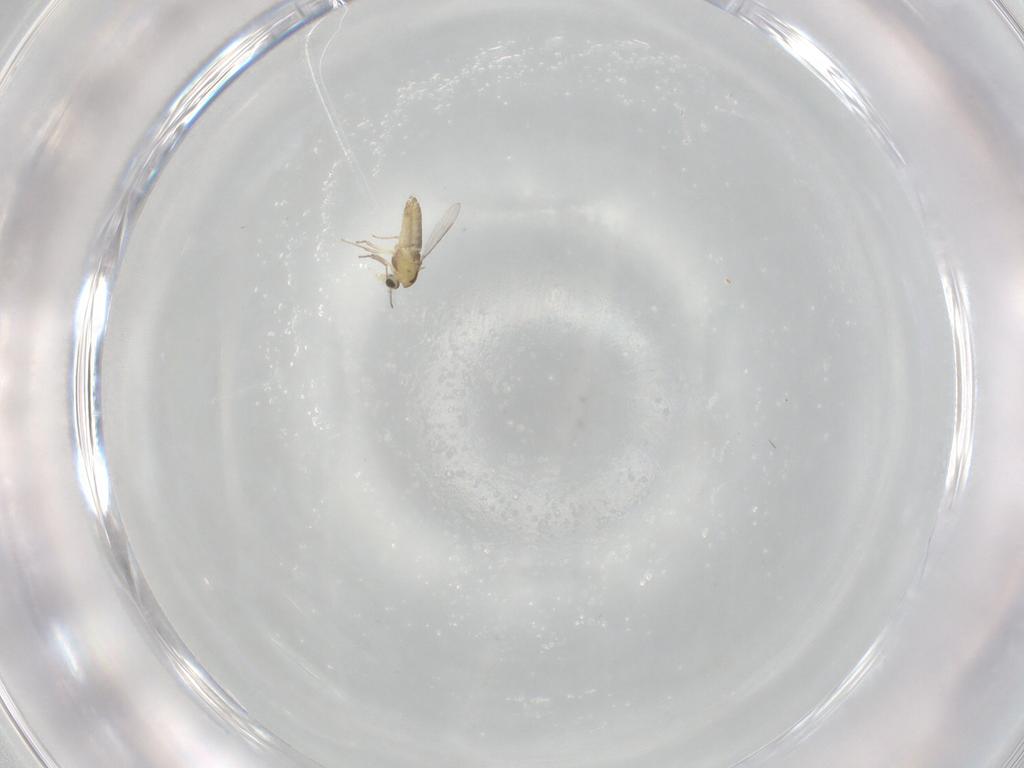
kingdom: Animalia
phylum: Arthropoda
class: Insecta
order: Diptera
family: Chironomidae
